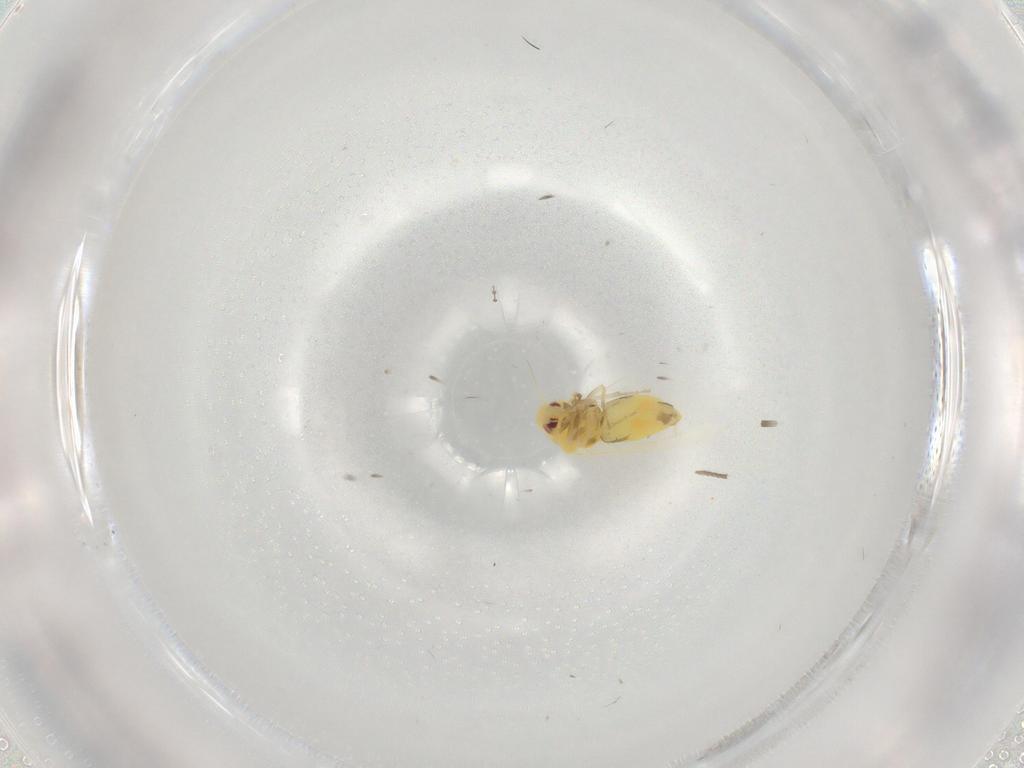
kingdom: Animalia
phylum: Arthropoda
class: Insecta
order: Hemiptera
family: Aleyrodidae
